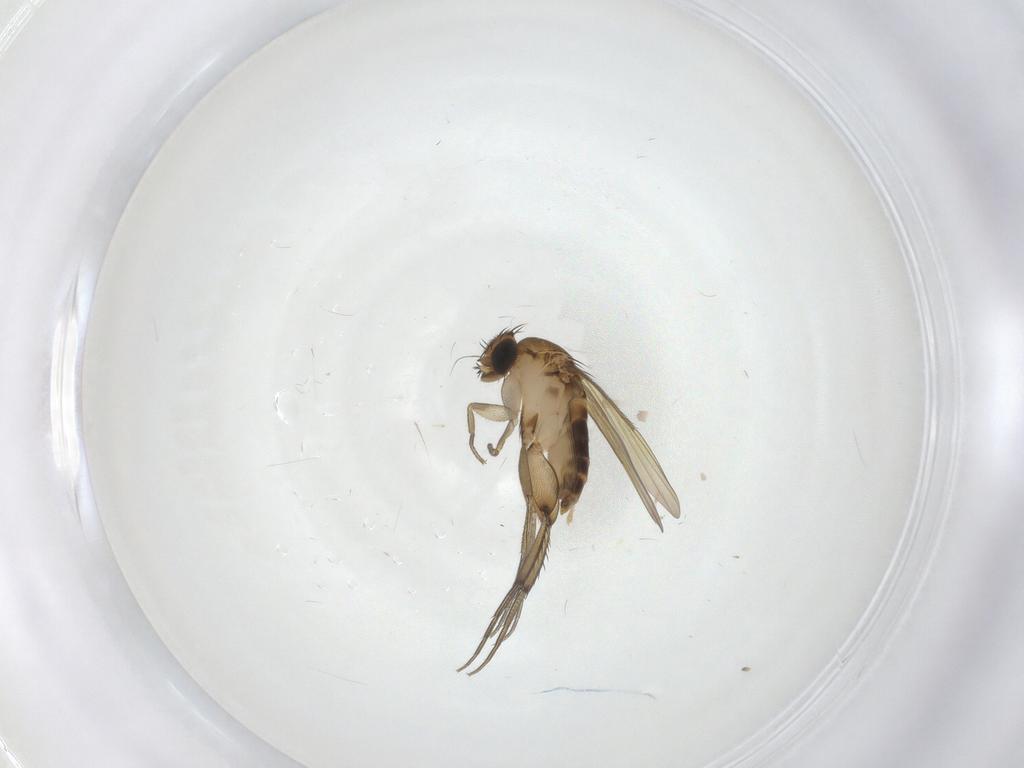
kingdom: Animalia
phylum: Arthropoda
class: Insecta
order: Diptera
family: Phoridae
